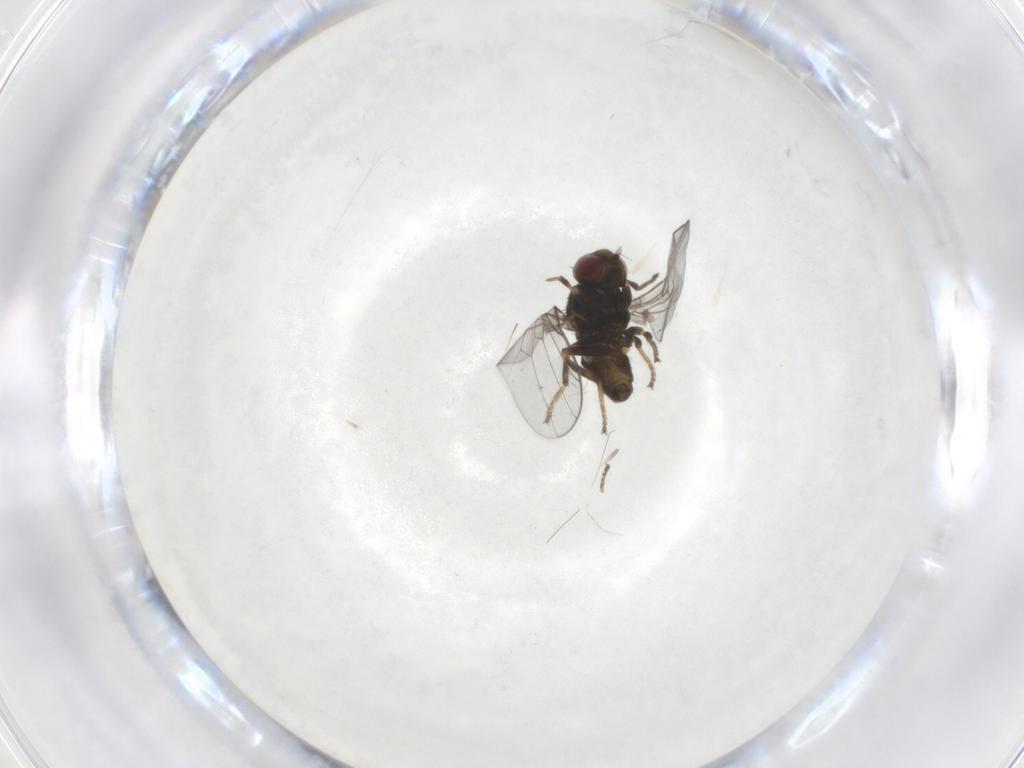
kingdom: Animalia
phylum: Arthropoda
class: Insecta
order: Diptera
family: Chloropidae
